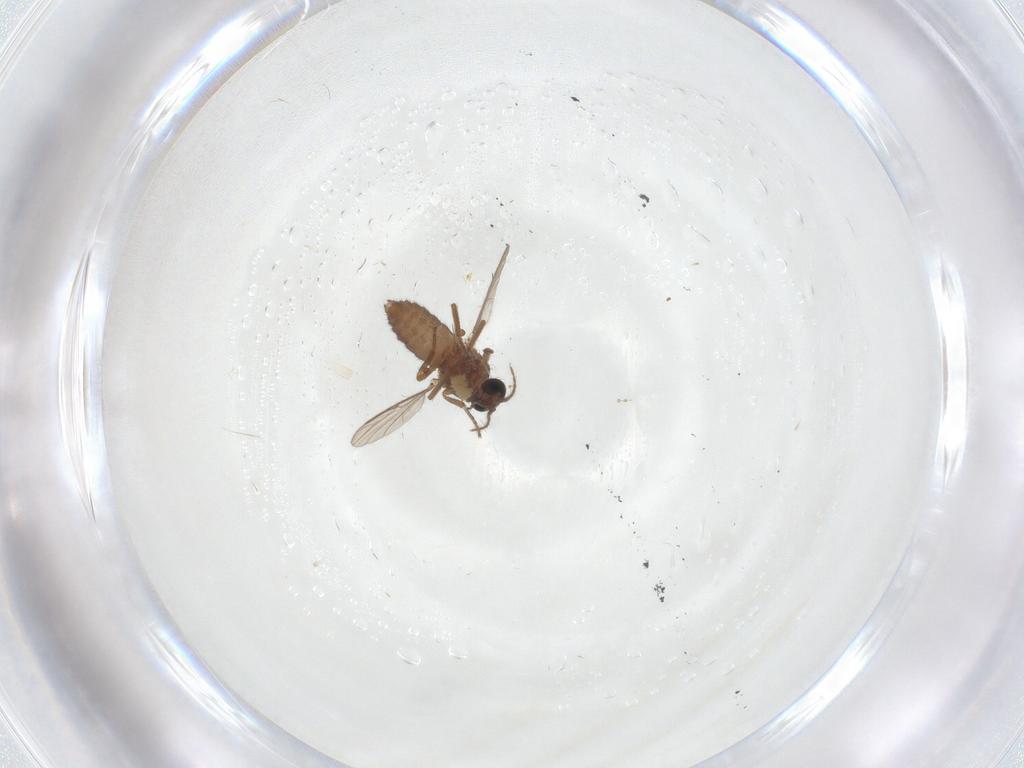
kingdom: Animalia
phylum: Arthropoda
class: Insecta
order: Diptera
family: Ceratopogonidae
